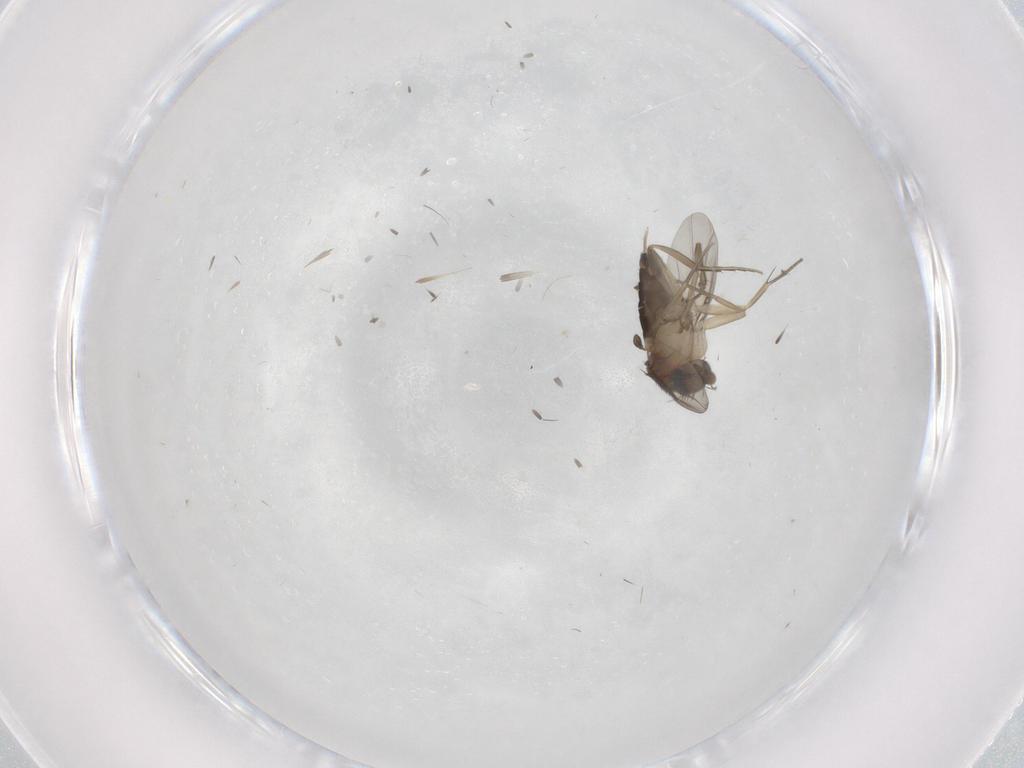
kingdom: Animalia
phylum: Arthropoda
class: Insecta
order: Diptera
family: Phoridae
